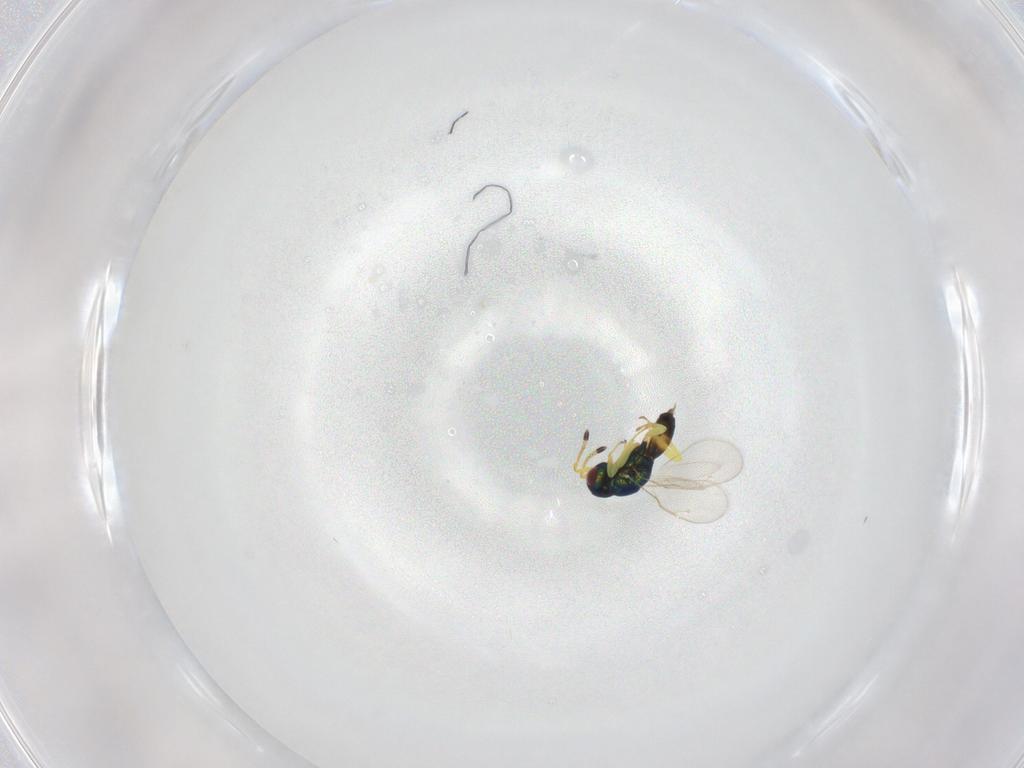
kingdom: Animalia
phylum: Arthropoda
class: Insecta
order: Hymenoptera
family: Pteromalidae
